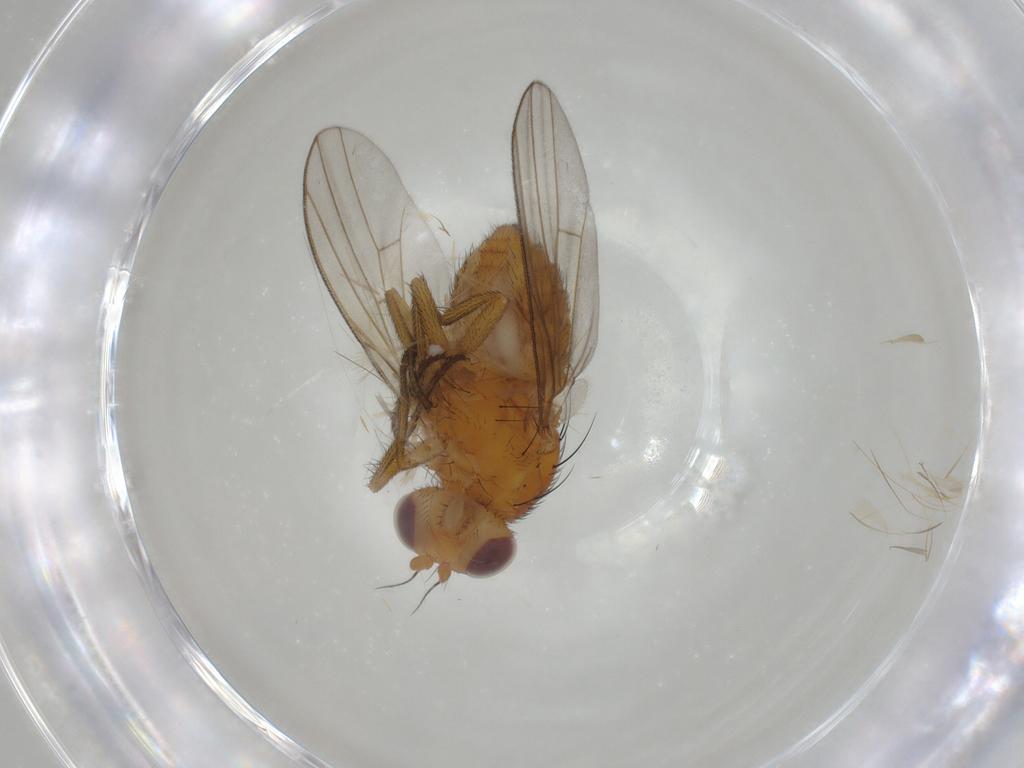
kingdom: Animalia
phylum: Arthropoda
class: Insecta
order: Diptera
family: Lauxaniidae
